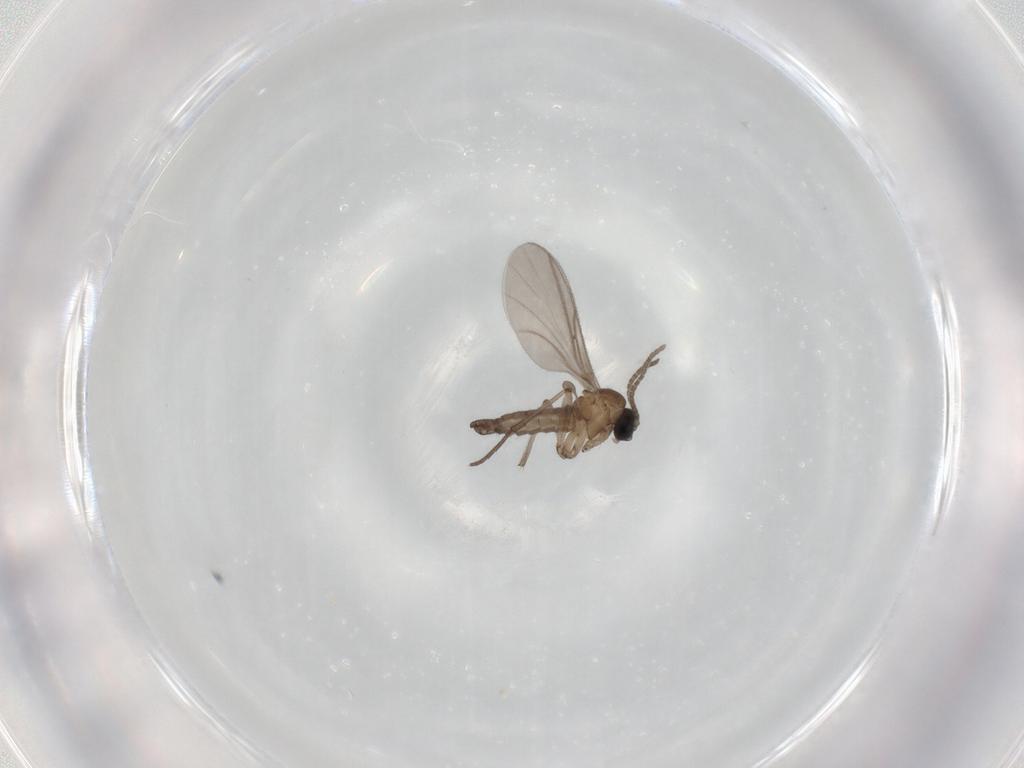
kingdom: Animalia
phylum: Arthropoda
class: Insecta
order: Diptera
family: Sciaridae
